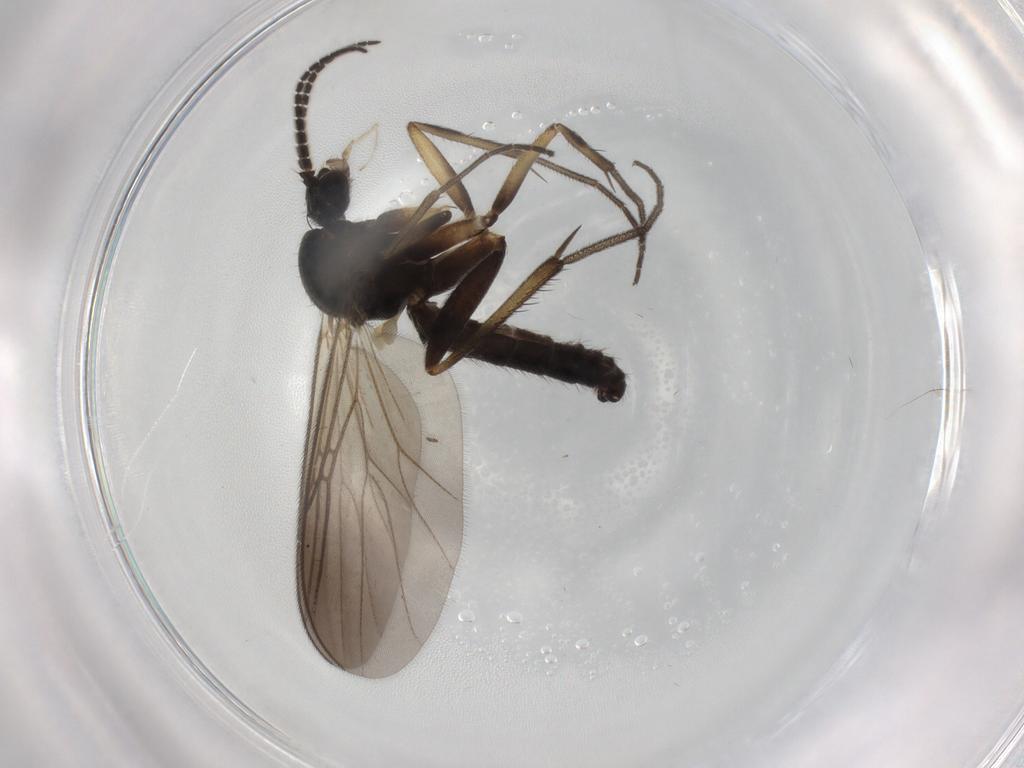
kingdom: Animalia
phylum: Arthropoda
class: Insecta
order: Diptera
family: Mycetophilidae
